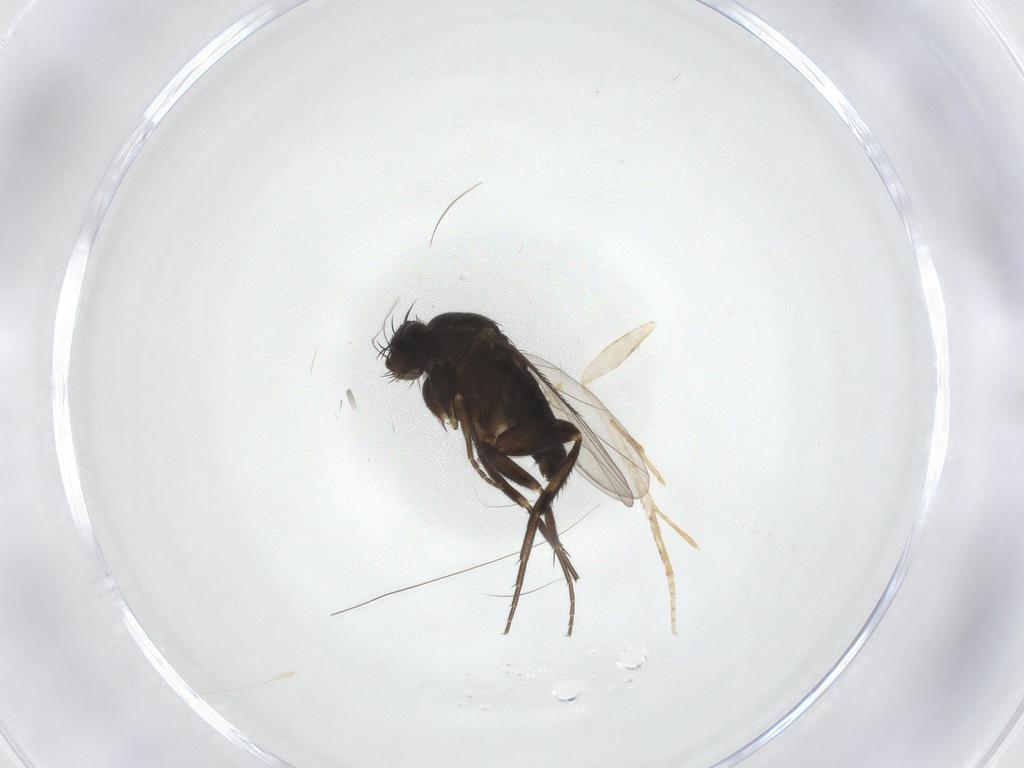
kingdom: Animalia
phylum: Arthropoda
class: Insecta
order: Diptera
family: Phoridae
